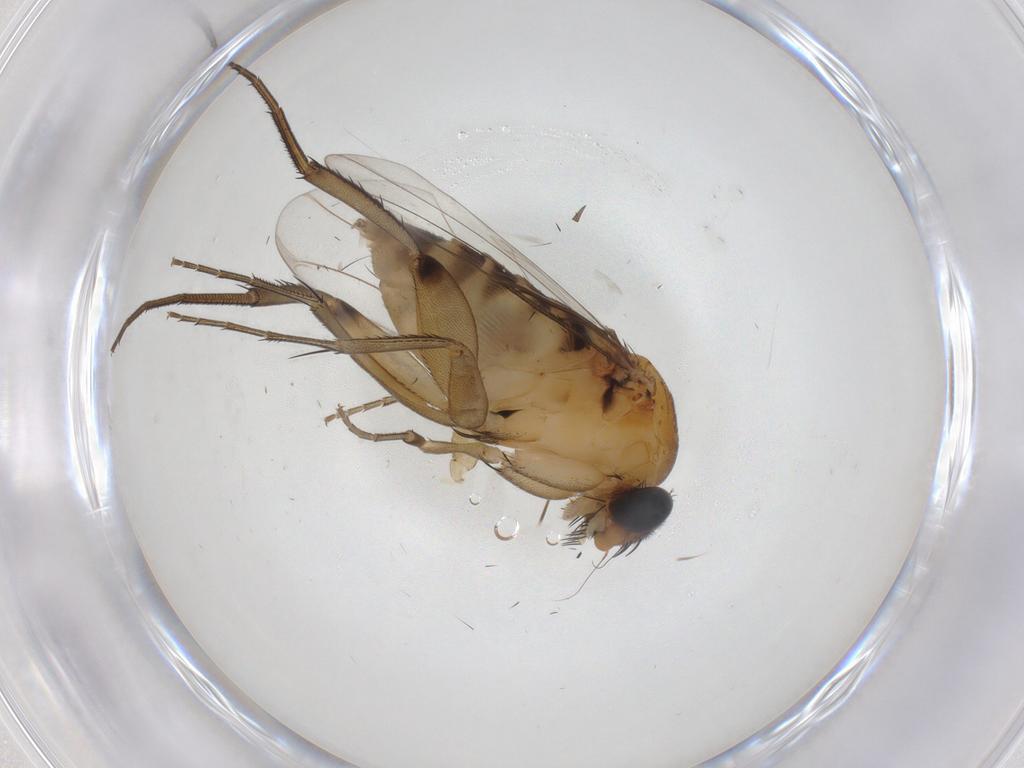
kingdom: Animalia
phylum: Arthropoda
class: Insecta
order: Diptera
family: Phoridae
